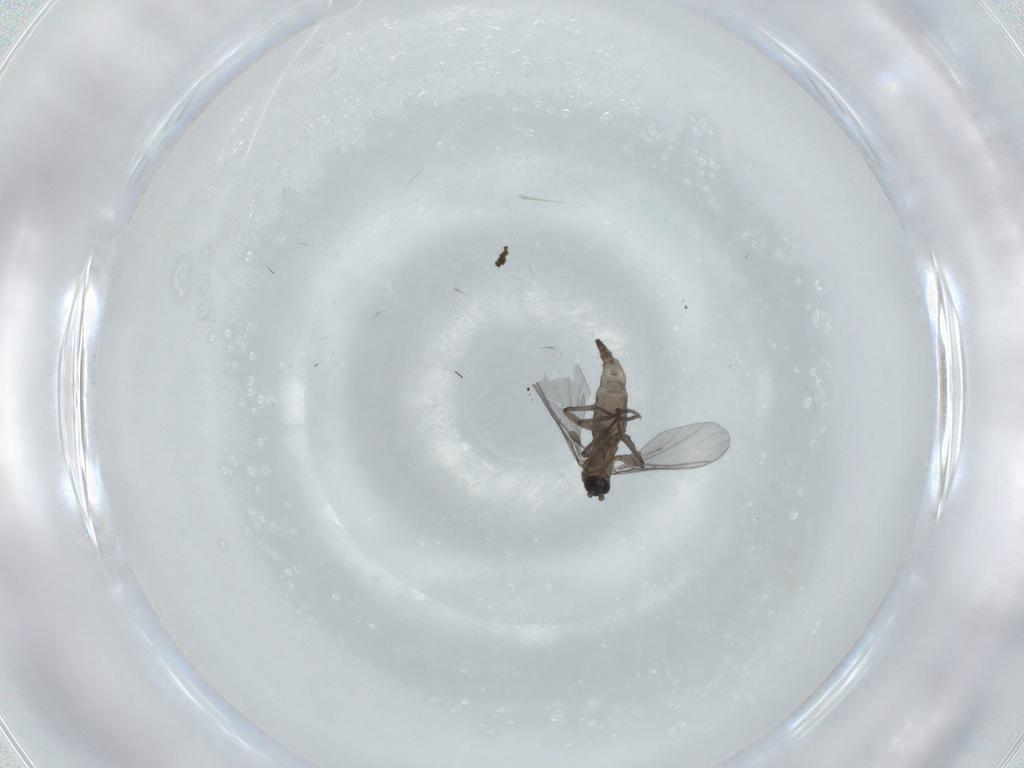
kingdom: Animalia
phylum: Arthropoda
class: Insecta
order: Diptera
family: Sciaridae
